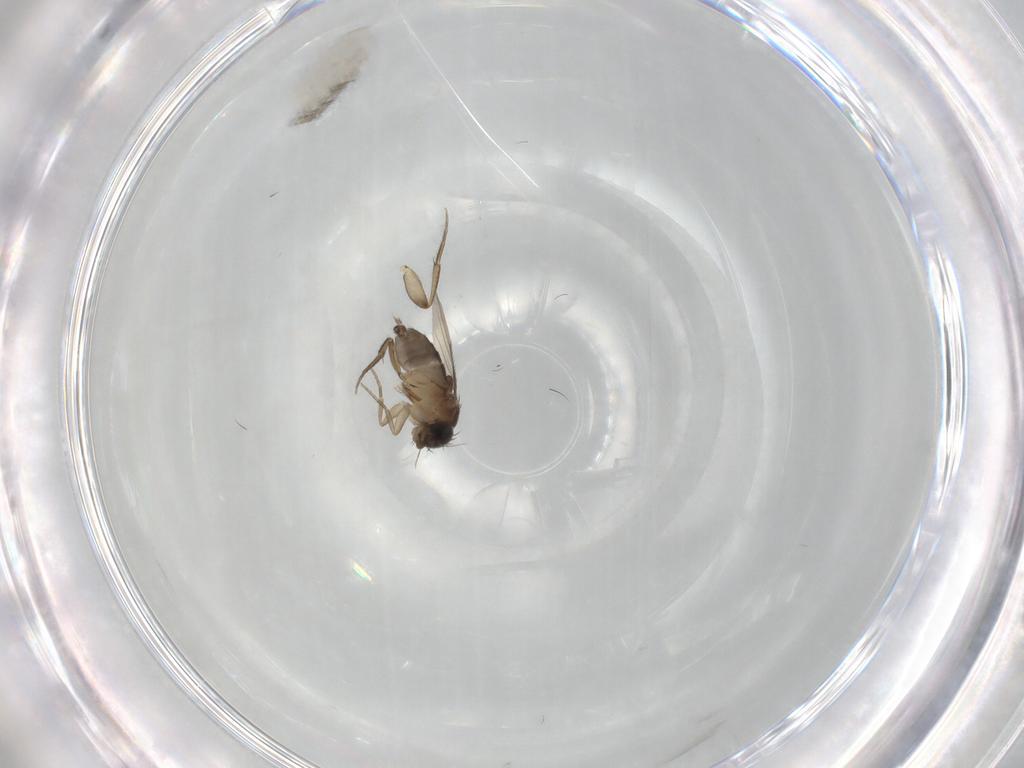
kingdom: Animalia
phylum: Arthropoda
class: Insecta
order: Diptera
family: Phoridae
